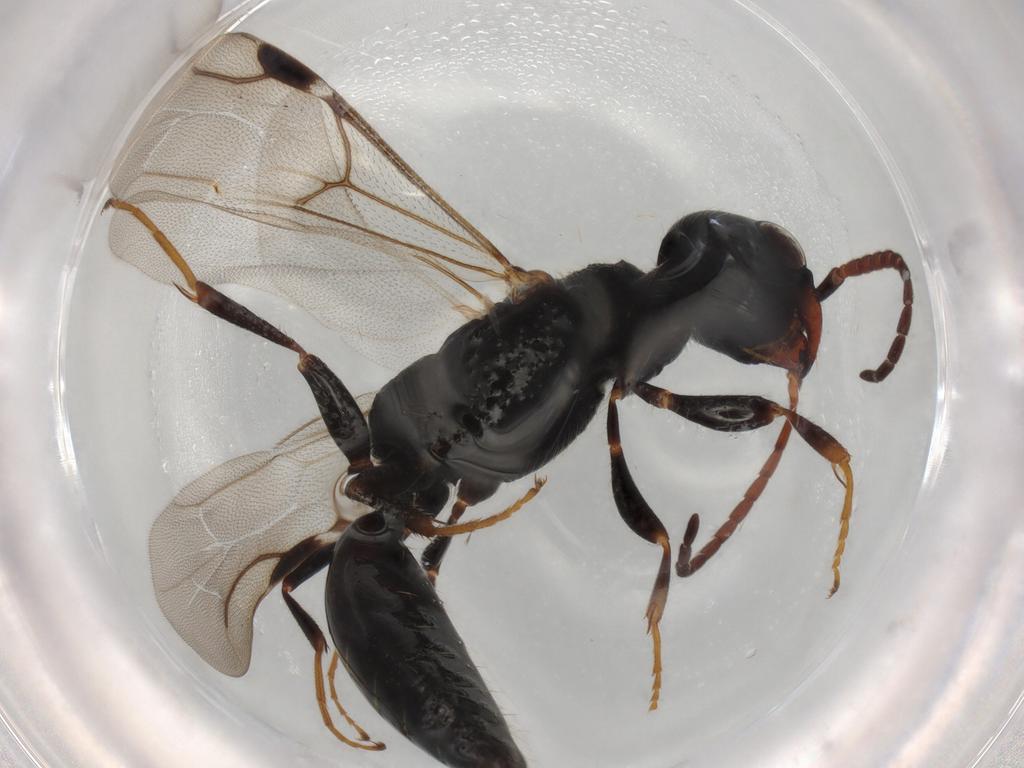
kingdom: Animalia
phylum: Arthropoda
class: Insecta
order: Hymenoptera
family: Bethylidae
